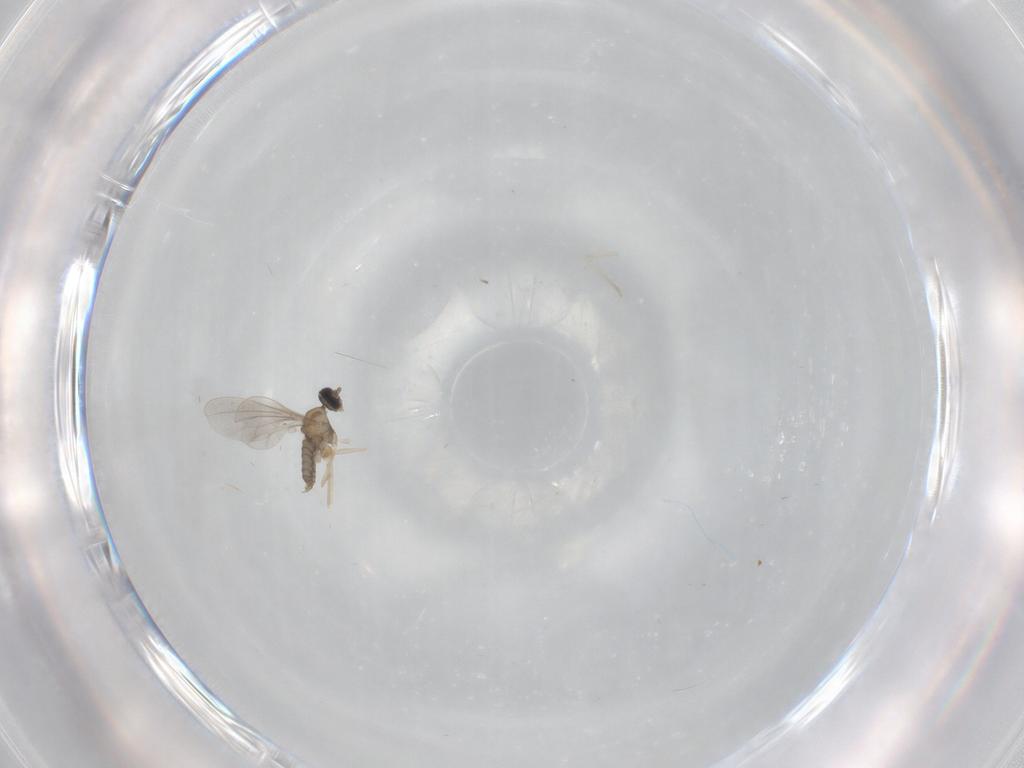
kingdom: Animalia
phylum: Arthropoda
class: Insecta
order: Diptera
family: Cecidomyiidae
